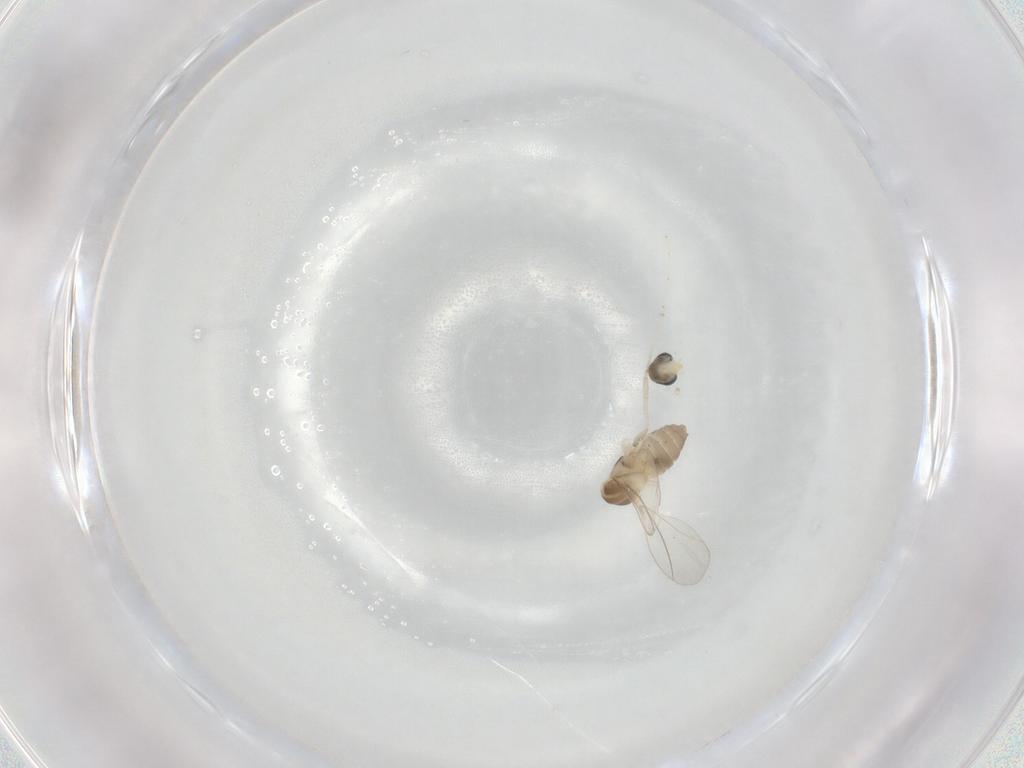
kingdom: Animalia
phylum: Arthropoda
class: Insecta
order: Diptera
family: Cecidomyiidae
